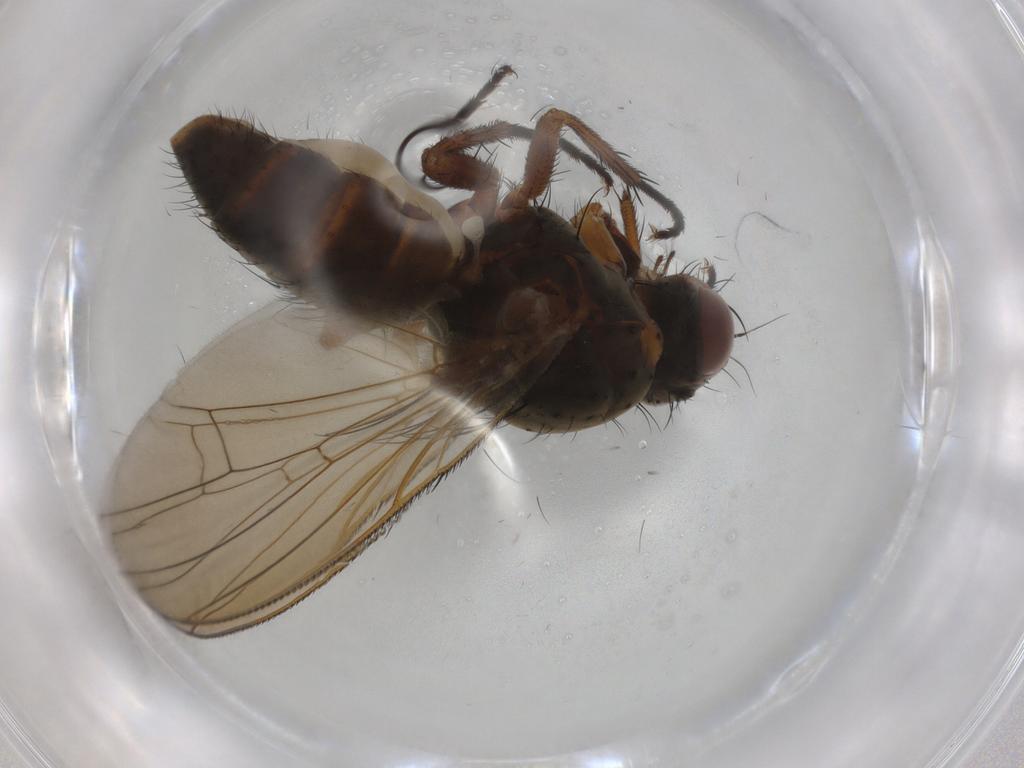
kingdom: Animalia
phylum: Arthropoda
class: Insecta
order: Diptera
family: Anthomyiidae
